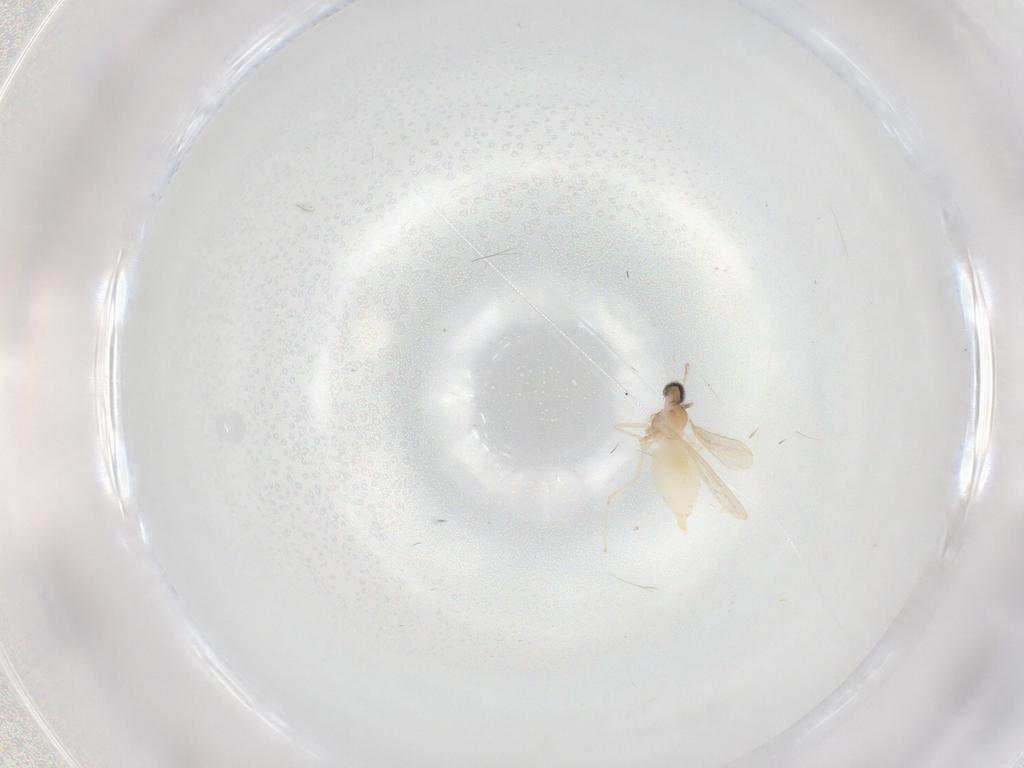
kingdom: Animalia
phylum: Arthropoda
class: Insecta
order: Diptera
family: Cecidomyiidae
